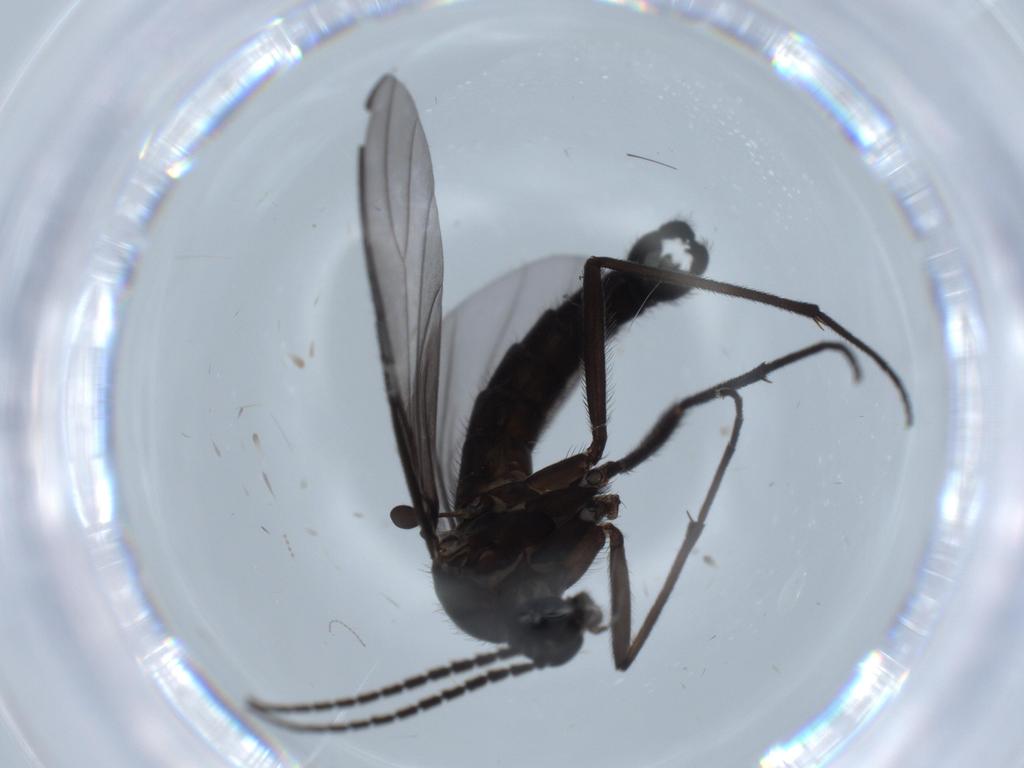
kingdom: Animalia
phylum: Arthropoda
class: Insecta
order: Diptera
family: Cecidomyiidae
